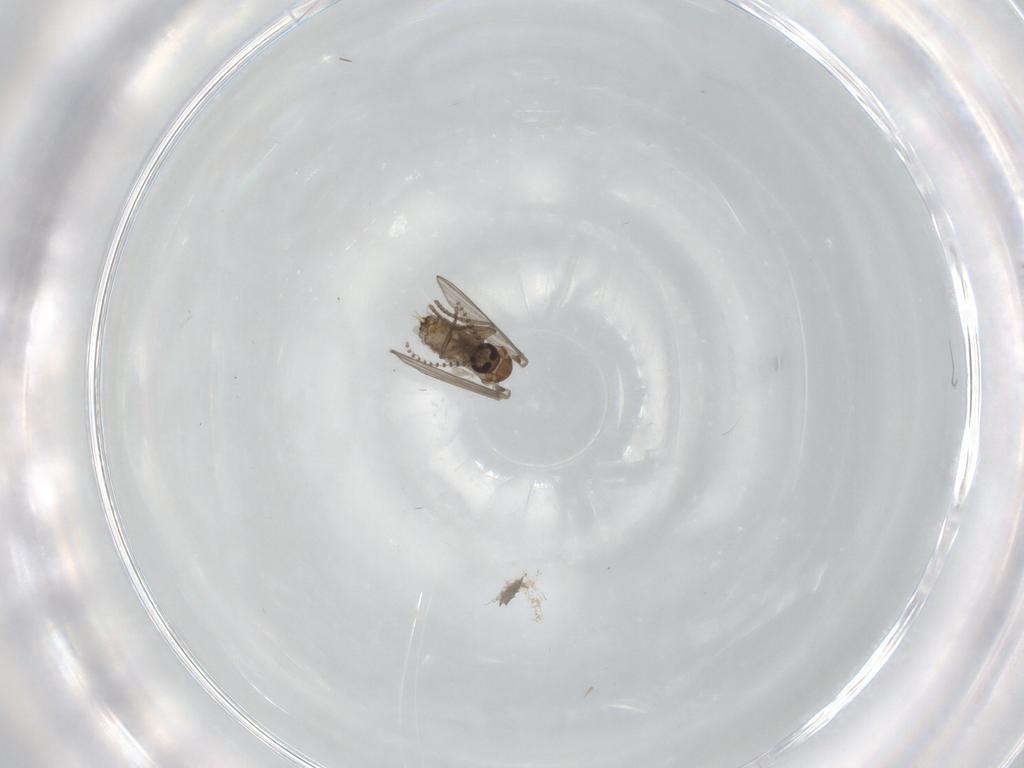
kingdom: Animalia
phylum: Arthropoda
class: Insecta
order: Diptera
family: Psychodidae
